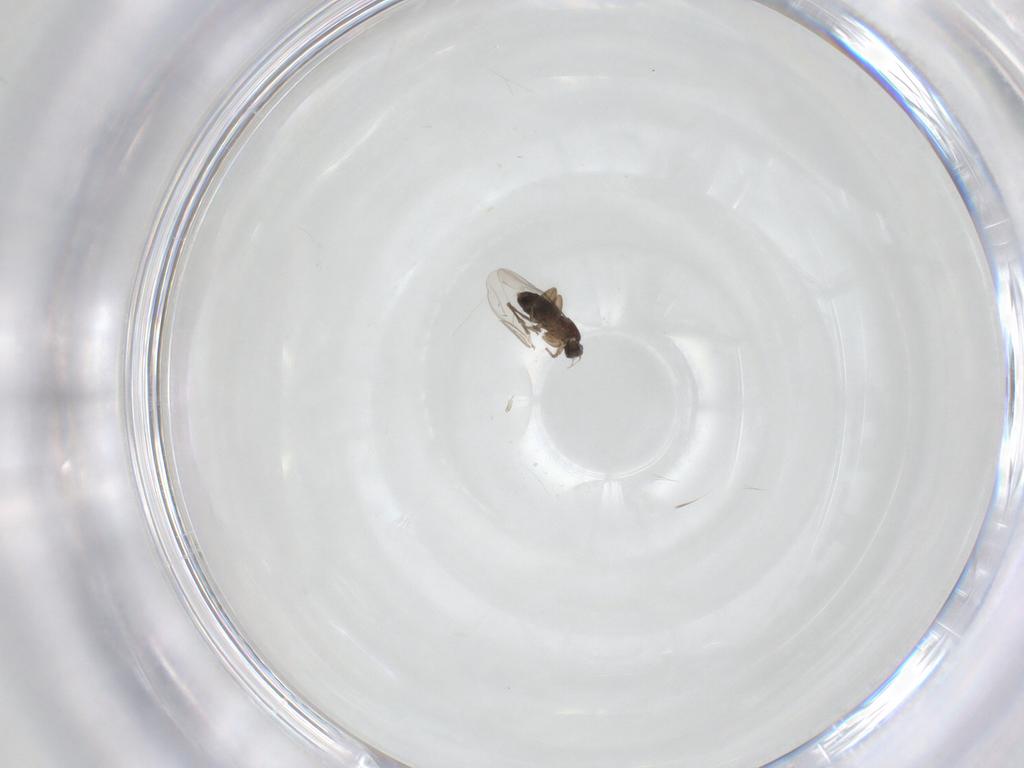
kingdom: Animalia
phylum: Arthropoda
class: Insecta
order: Diptera
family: Phoridae
